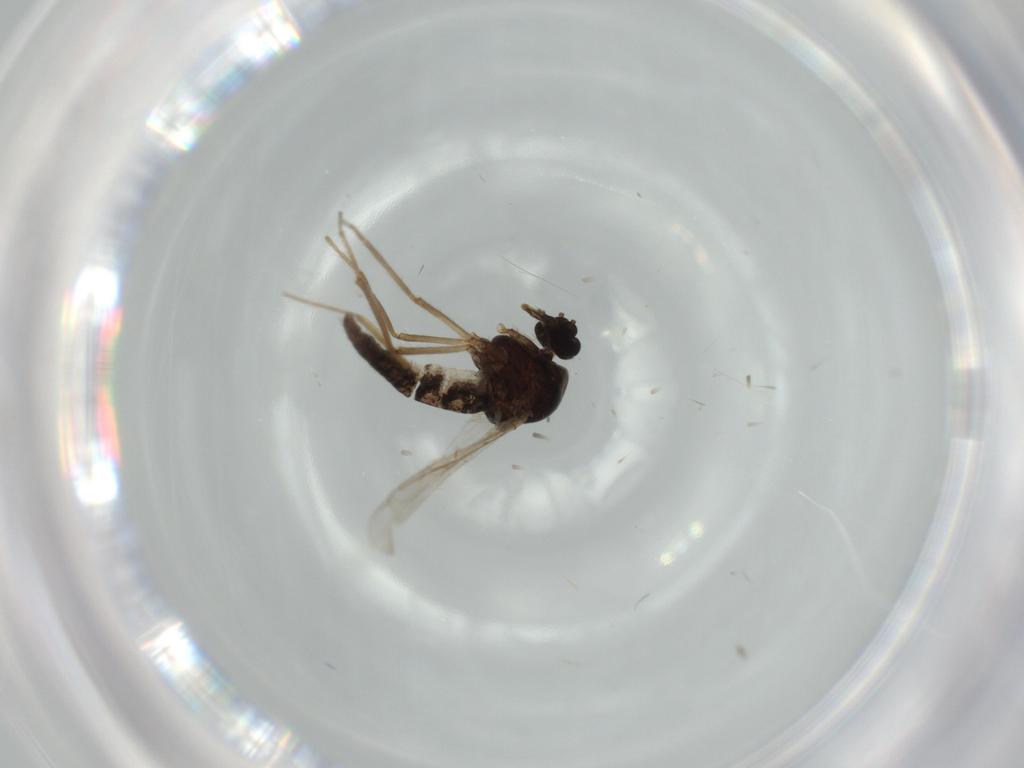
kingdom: Animalia
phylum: Arthropoda
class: Insecta
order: Diptera
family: Ceratopogonidae
